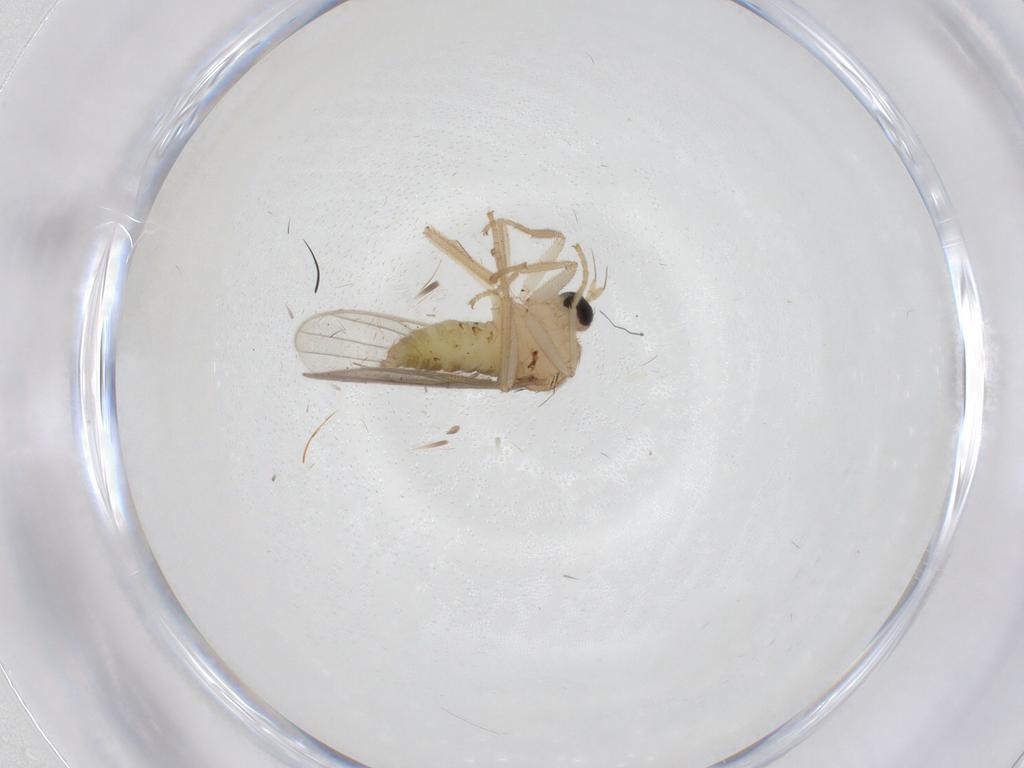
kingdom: Animalia
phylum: Arthropoda
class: Insecta
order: Diptera
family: Hybotidae
